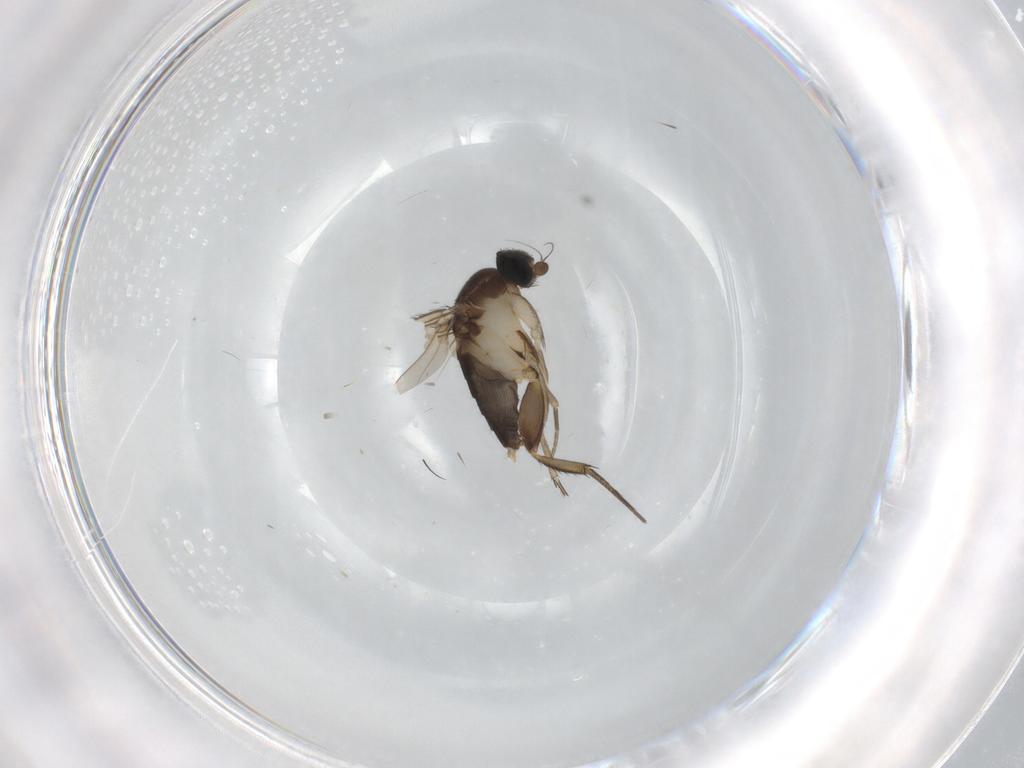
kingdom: Animalia
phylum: Arthropoda
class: Insecta
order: Diptera
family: Phoridae
